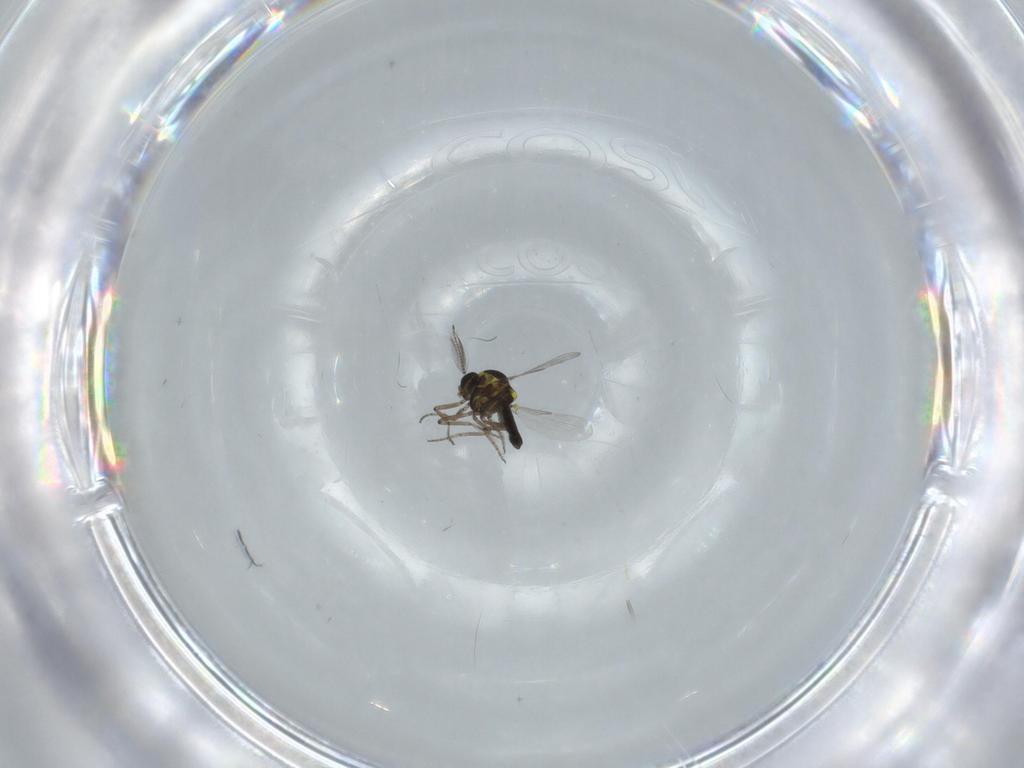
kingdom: Animalia
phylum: Arthropoda
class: Insecta
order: Diptera
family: Ceratopogonidae
